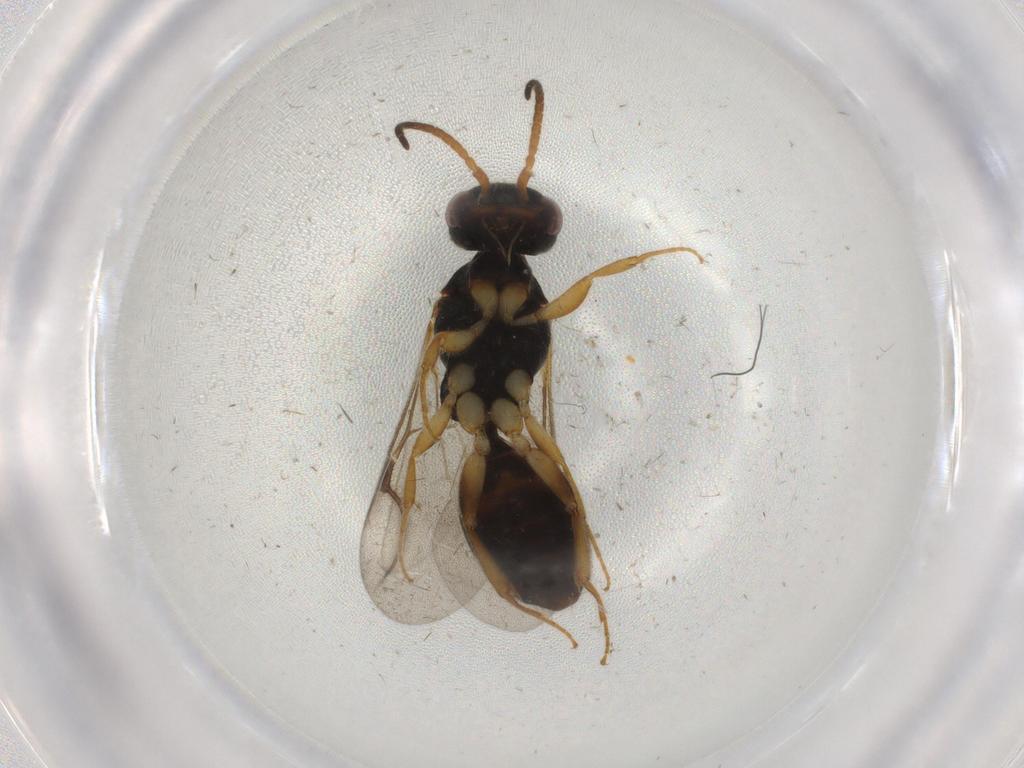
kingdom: Animalia
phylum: Arthropoda
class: Insecta
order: Hymenoptera
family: Bethylidae
